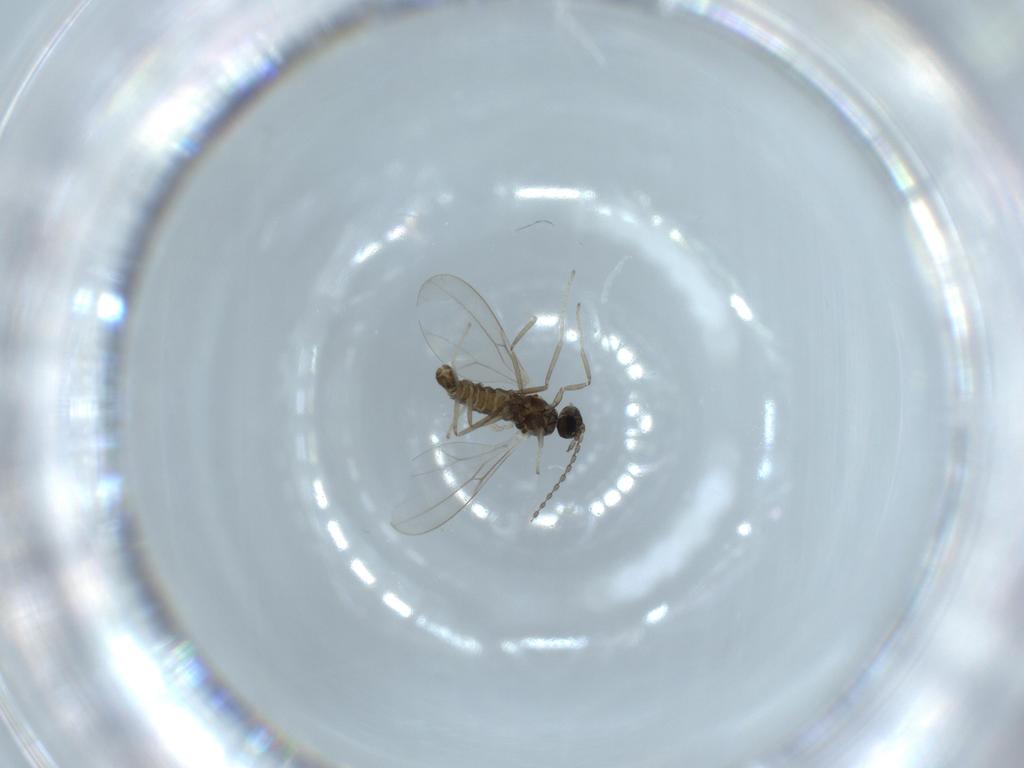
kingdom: Animalia
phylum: Arthropoda
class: Insecta
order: Diptera
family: Cecidomyiidae
